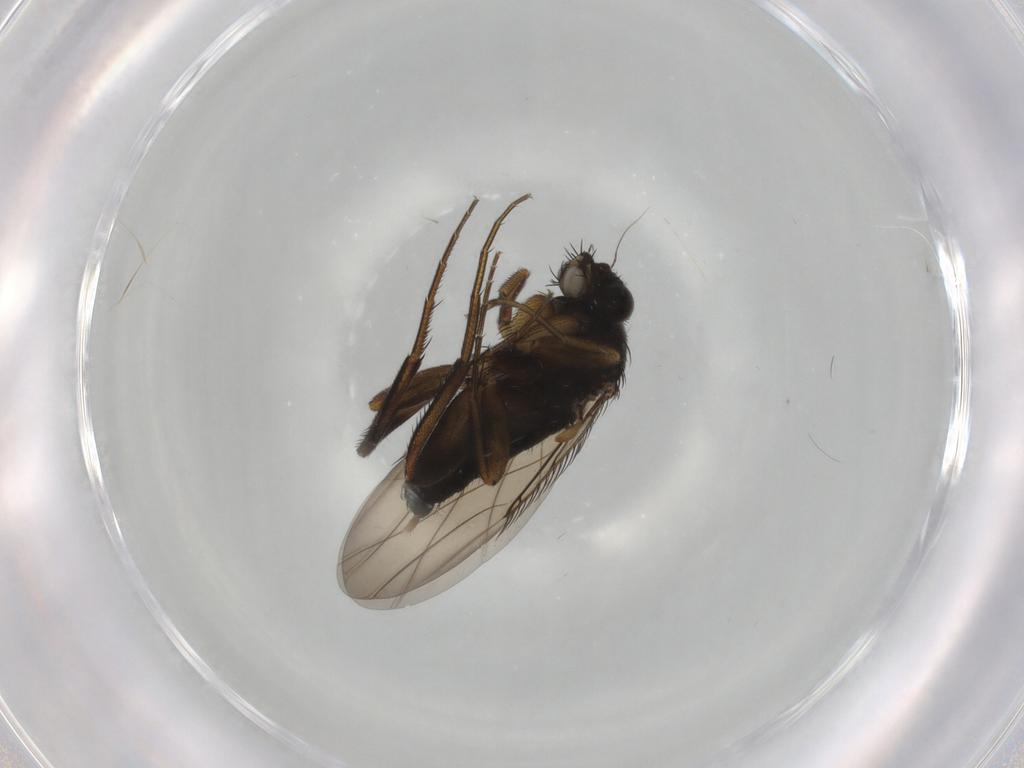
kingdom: Animalia
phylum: Arthropoda
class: Insecta
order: Diptera
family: Phoridae
